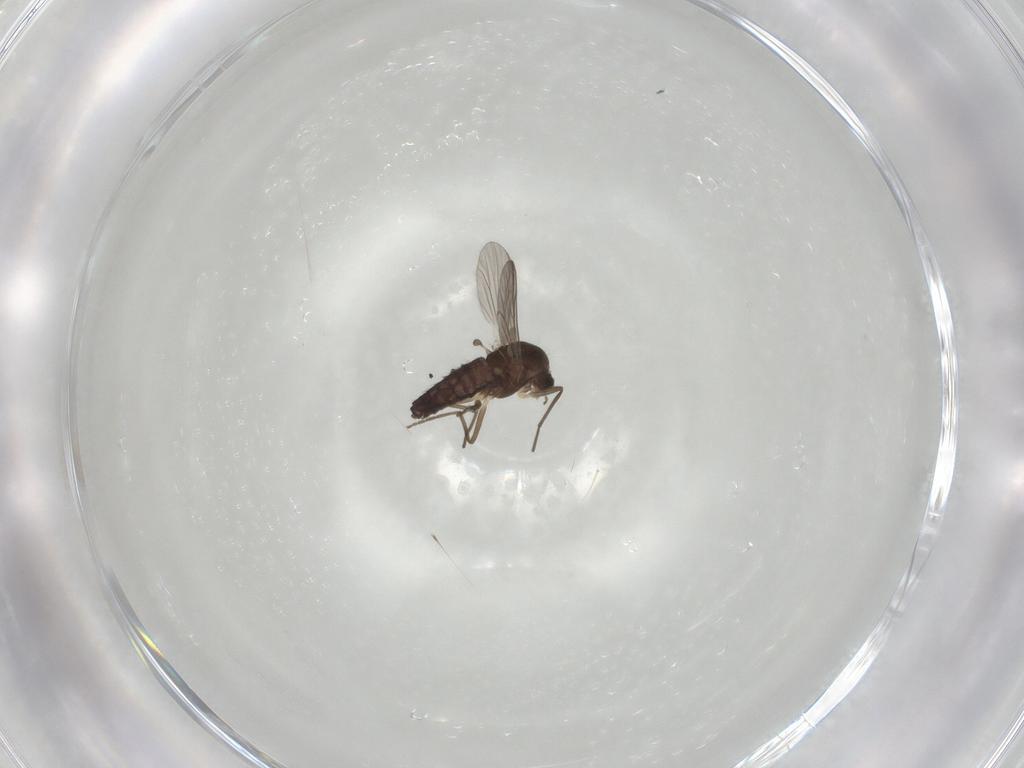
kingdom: Animalia
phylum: Arthropoda
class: Insecta
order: Diptera
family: Chironomidae
